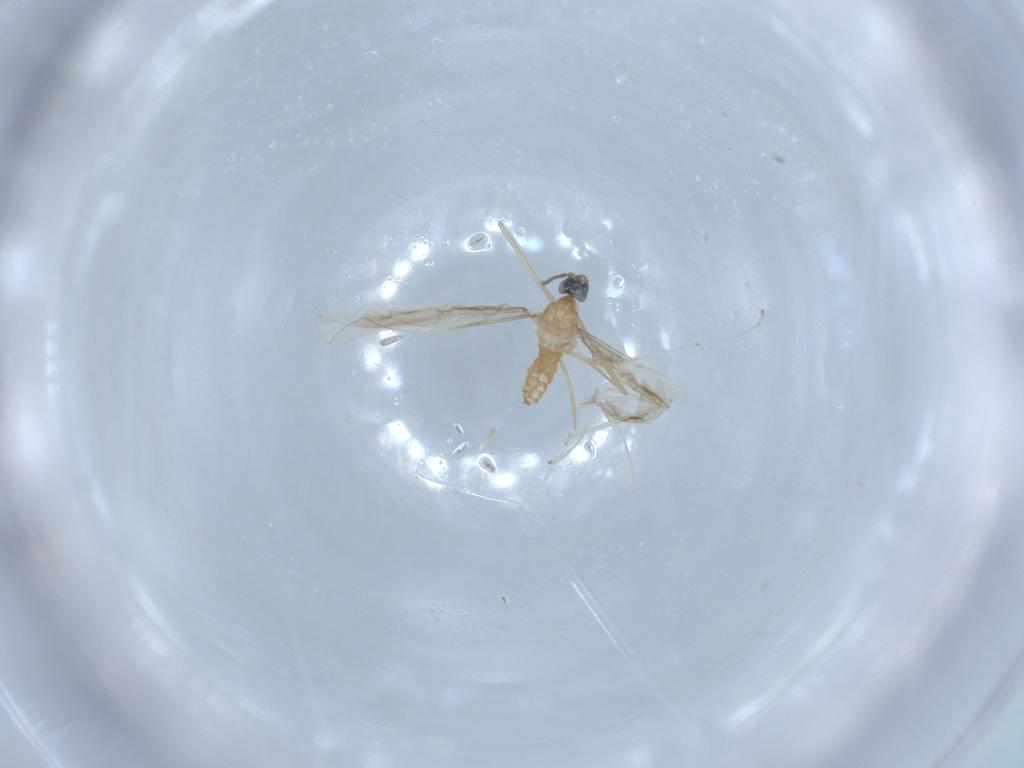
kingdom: Animalia
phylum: Arthropoda
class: Insecta
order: Diptera
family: Cecidomyiidae
